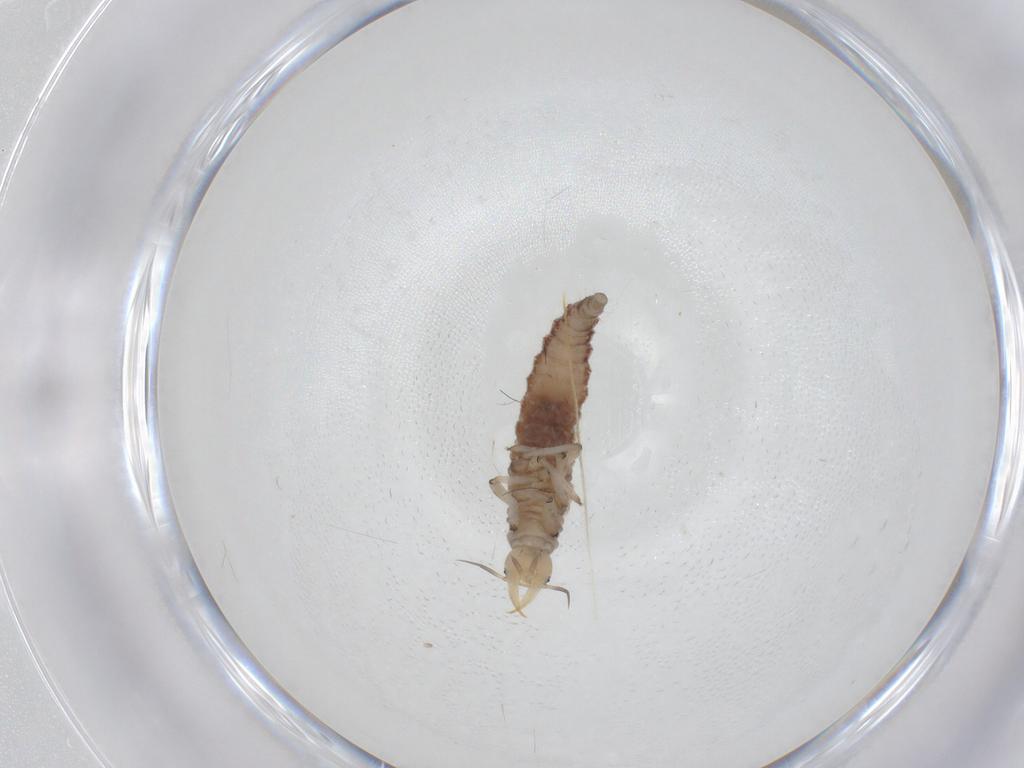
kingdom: Animalia
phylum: Arthropoda
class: Insecta
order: Neuroptera
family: Hemerobiidae
